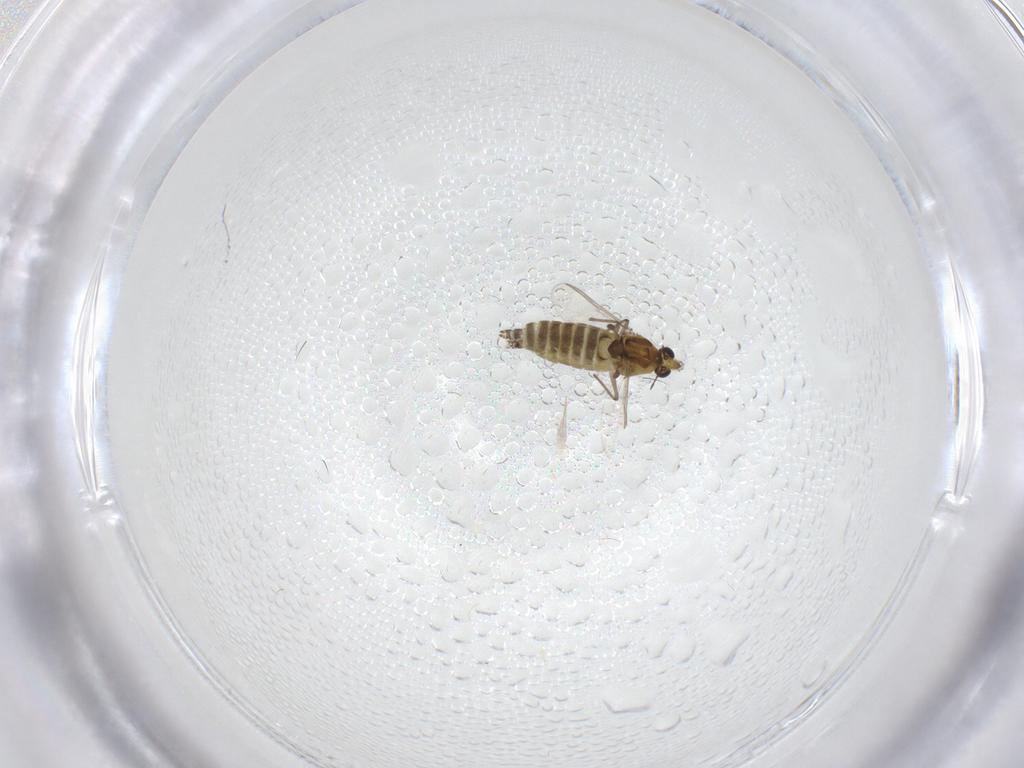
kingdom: Animalia
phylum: Arthropoda
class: Insecta
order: Diptera
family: Chironomidae
